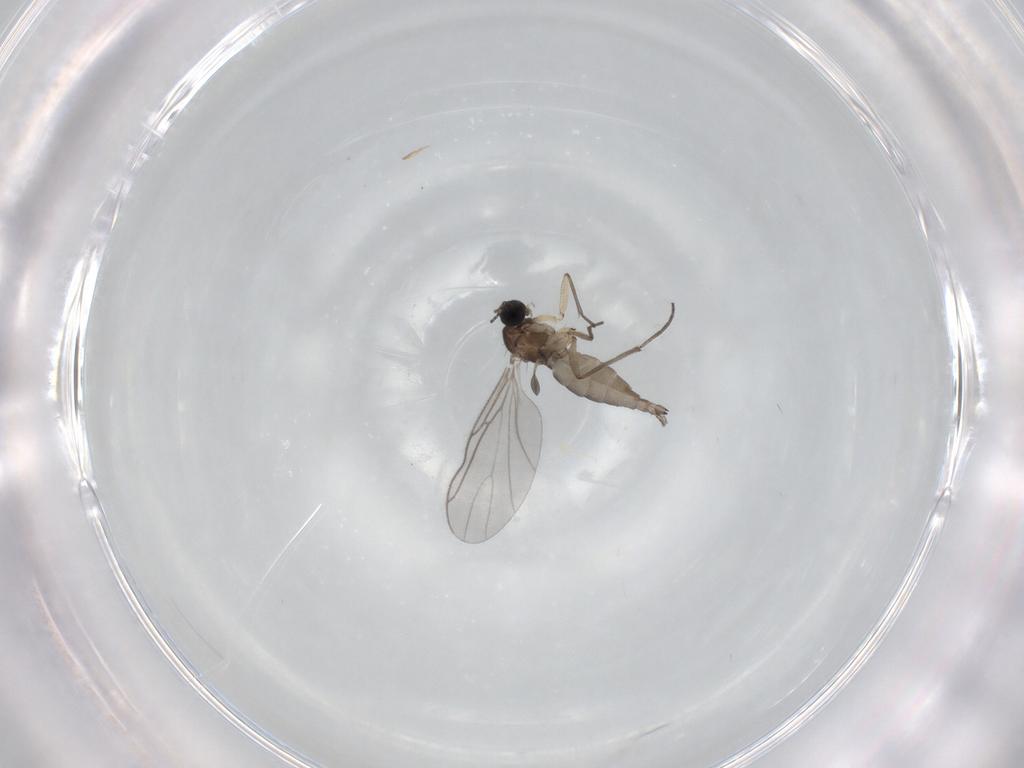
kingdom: Animalia
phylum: Arthropoda
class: Insecta
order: Diptera
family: Sciaridae
